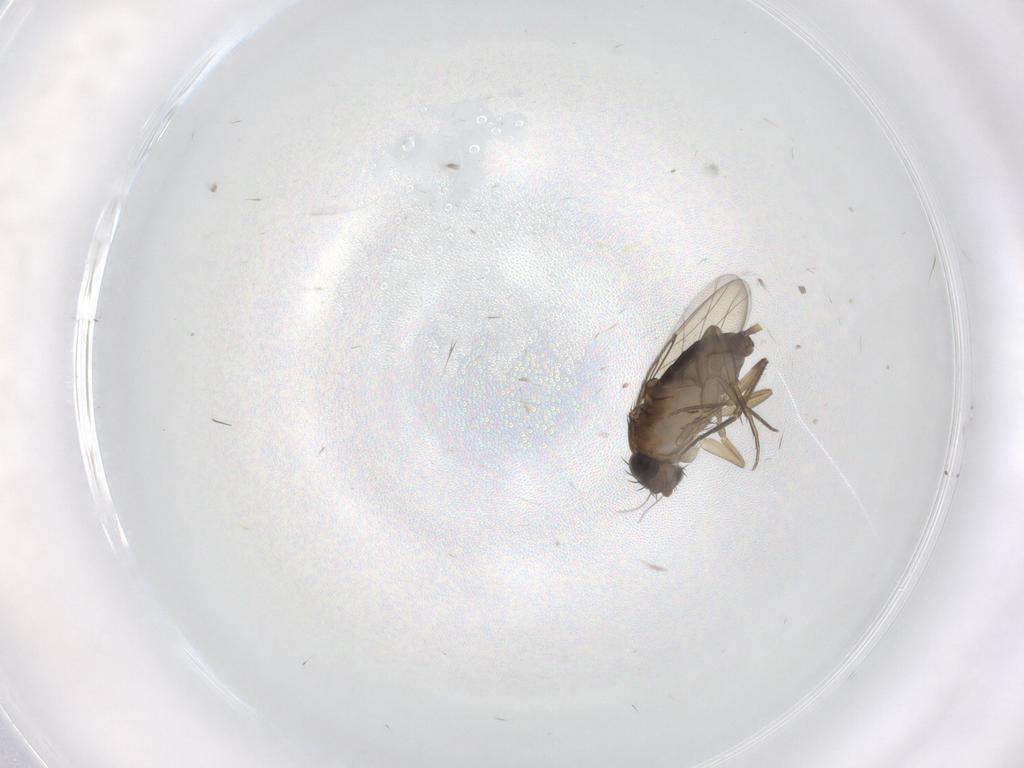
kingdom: Animalia
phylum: Arthropoda
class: Insecta
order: Diptera
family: Phoridae
